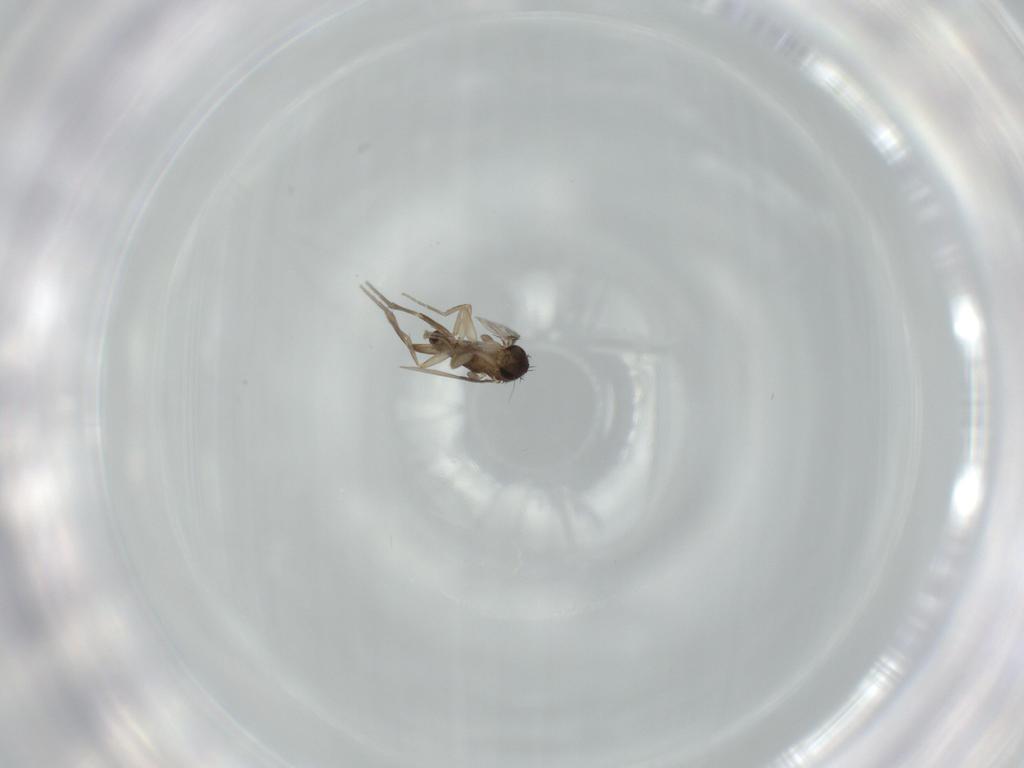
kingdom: Animalia
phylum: Arthropoda
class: Insecta
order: Diptera
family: Phoridae
